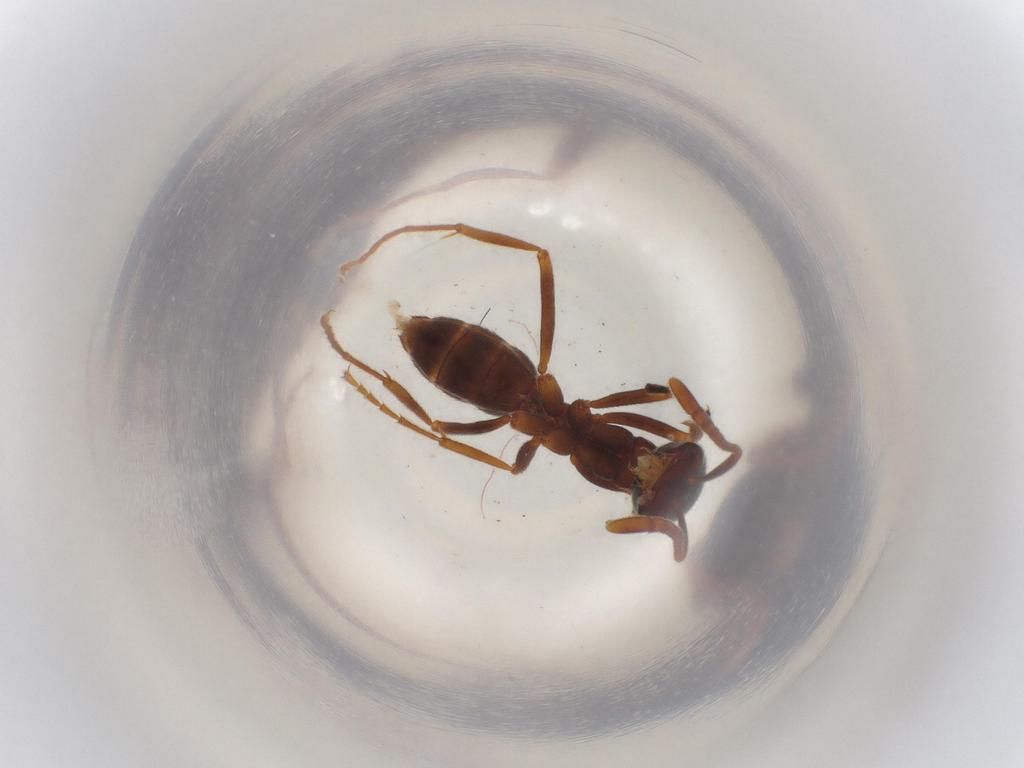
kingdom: Animalia
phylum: Arthropoda
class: Insecta
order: Hymenoptera
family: Formicidae
